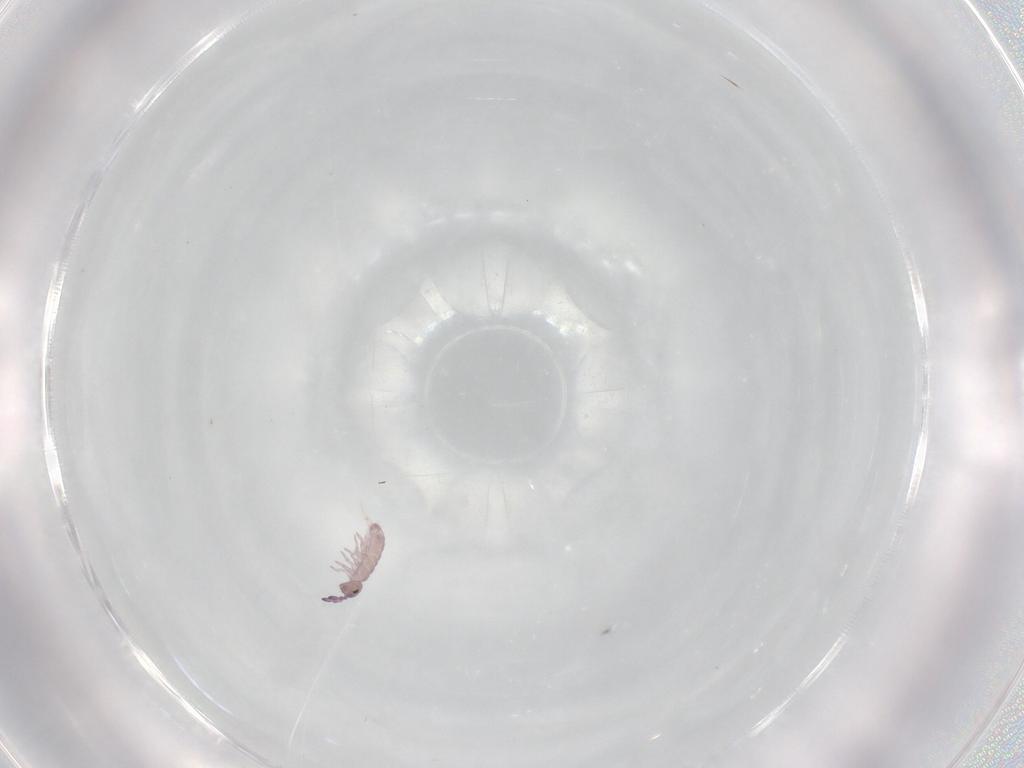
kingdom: Animalia
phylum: Arthropoda
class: Collembola
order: Entomobryomorpha
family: Isotomidae
